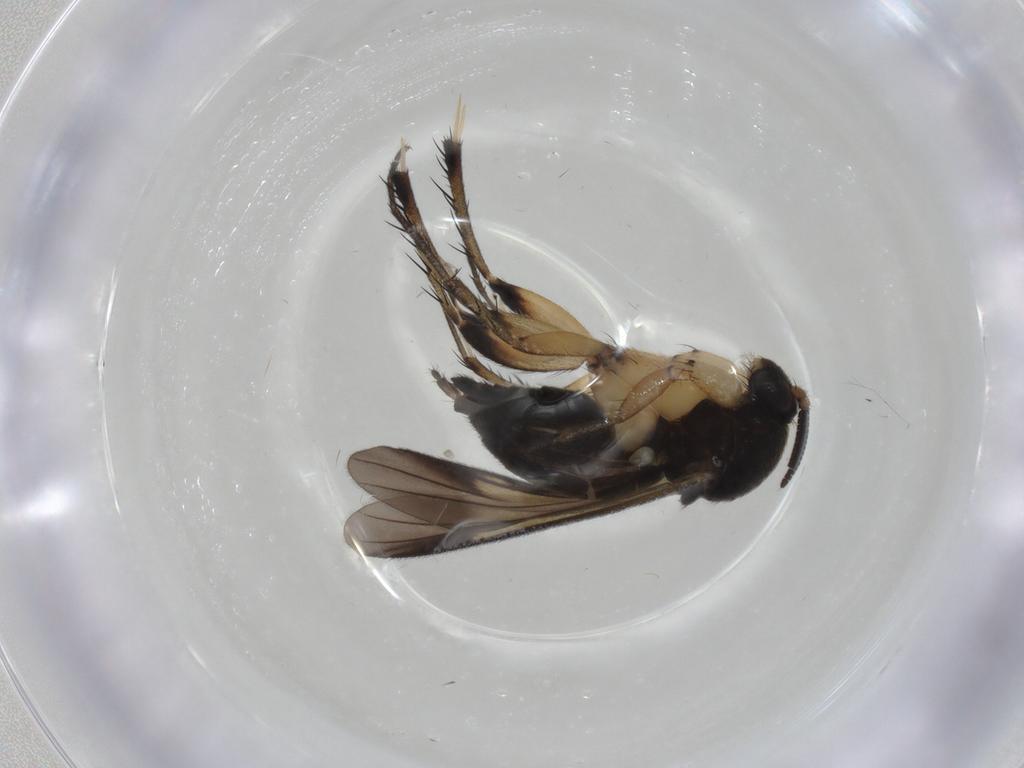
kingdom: Animalia
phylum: Arthropoda
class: Insecta
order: Diptera
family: Mycetophilidae
